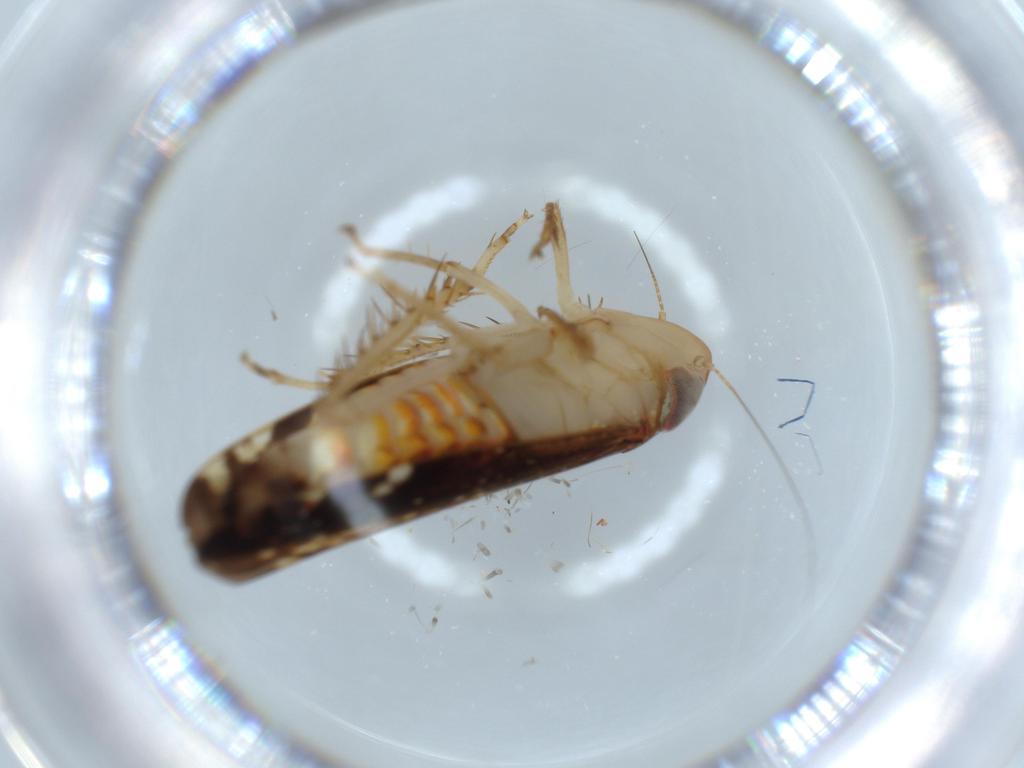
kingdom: Animalia
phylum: Arthropoda
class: Insecta
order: Hemiptera
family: Cicadellidae
